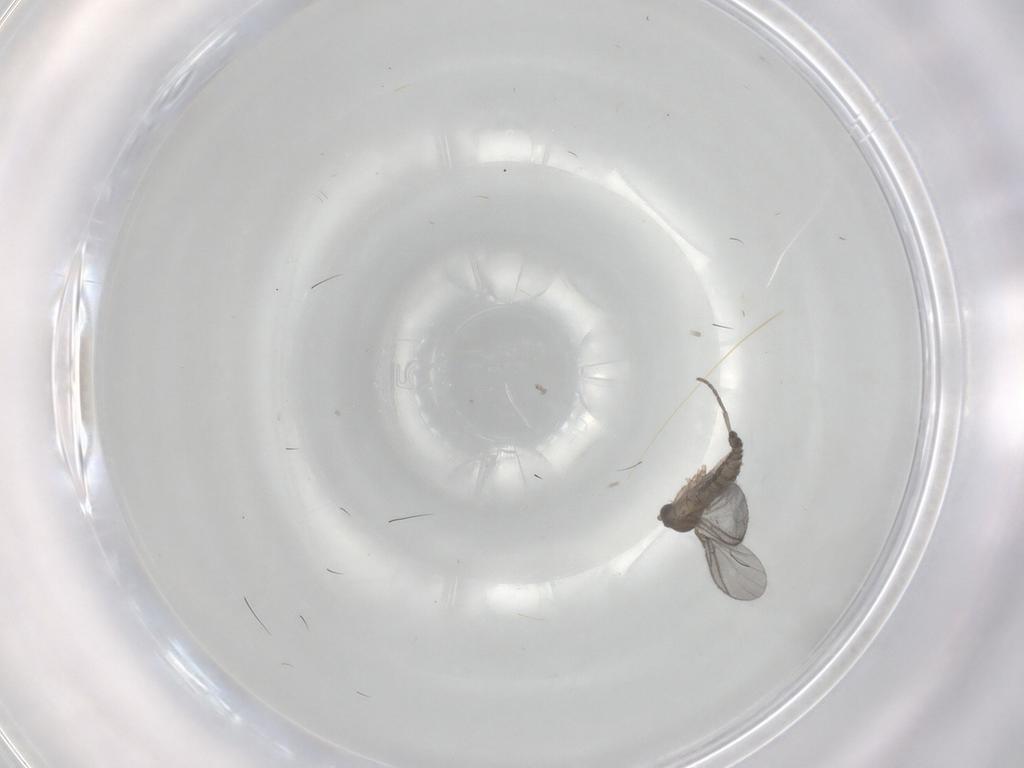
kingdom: Animalia
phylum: Arthropoda
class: Insecta
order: Diptera
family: Sciaridae
